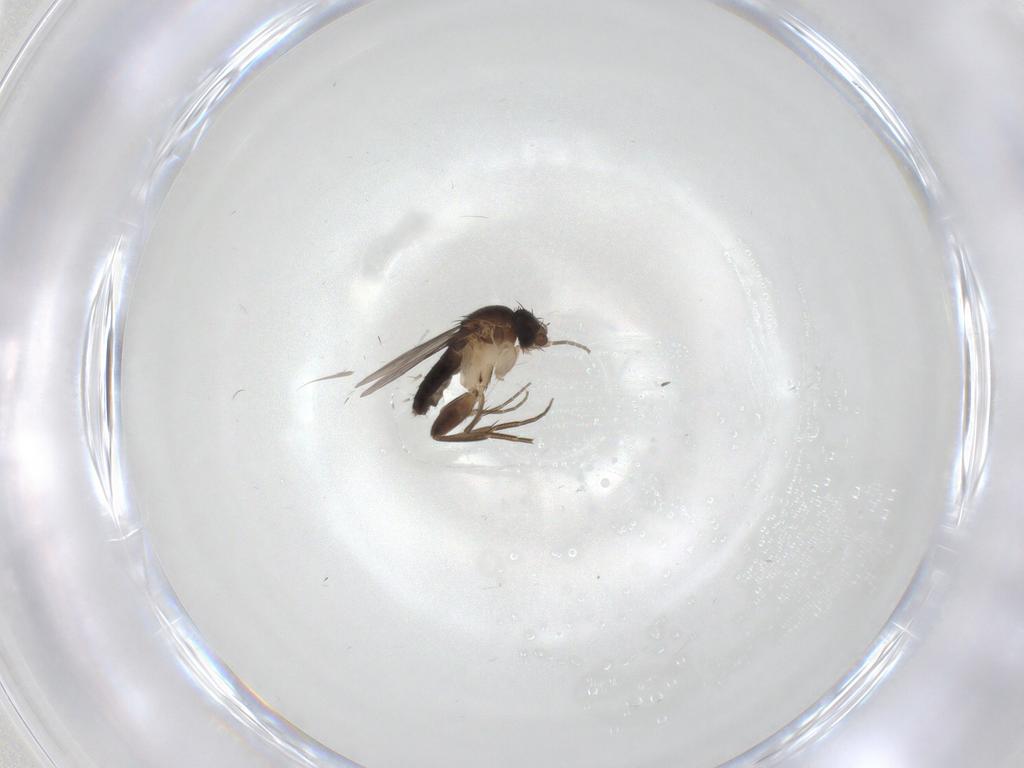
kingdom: Animalia
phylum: Arthropoda
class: Insecta
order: Diptera
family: Phoridae
